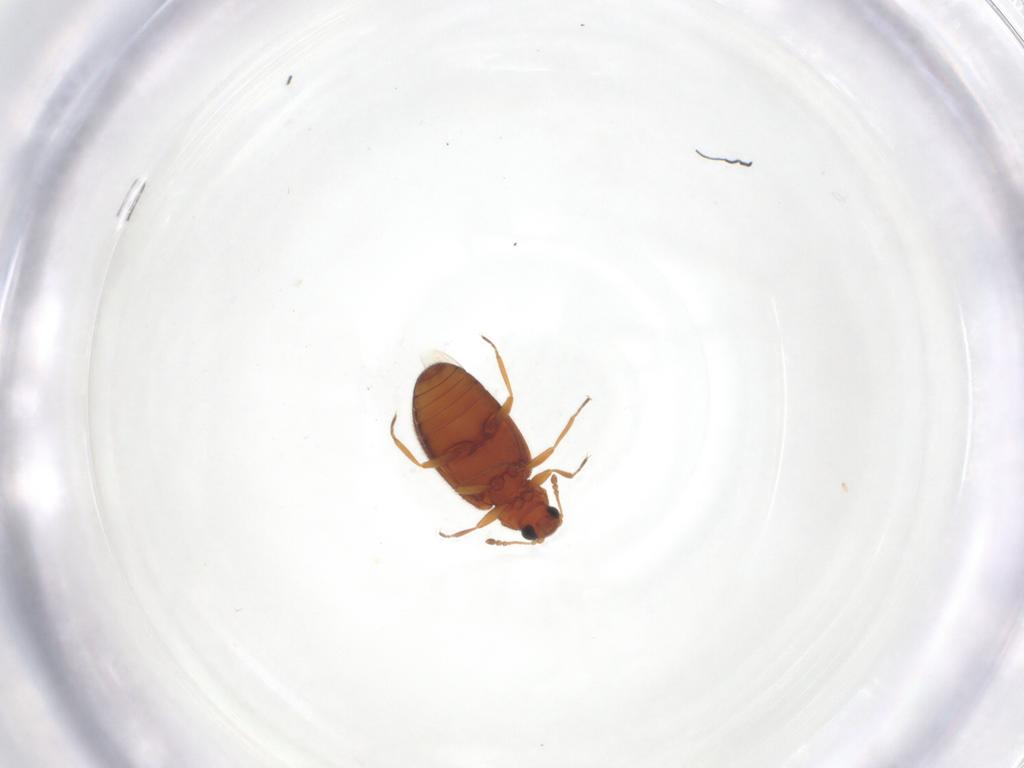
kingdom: Animalia
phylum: Arthropoda
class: Insecta
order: Coleoptera
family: Latridiidae
